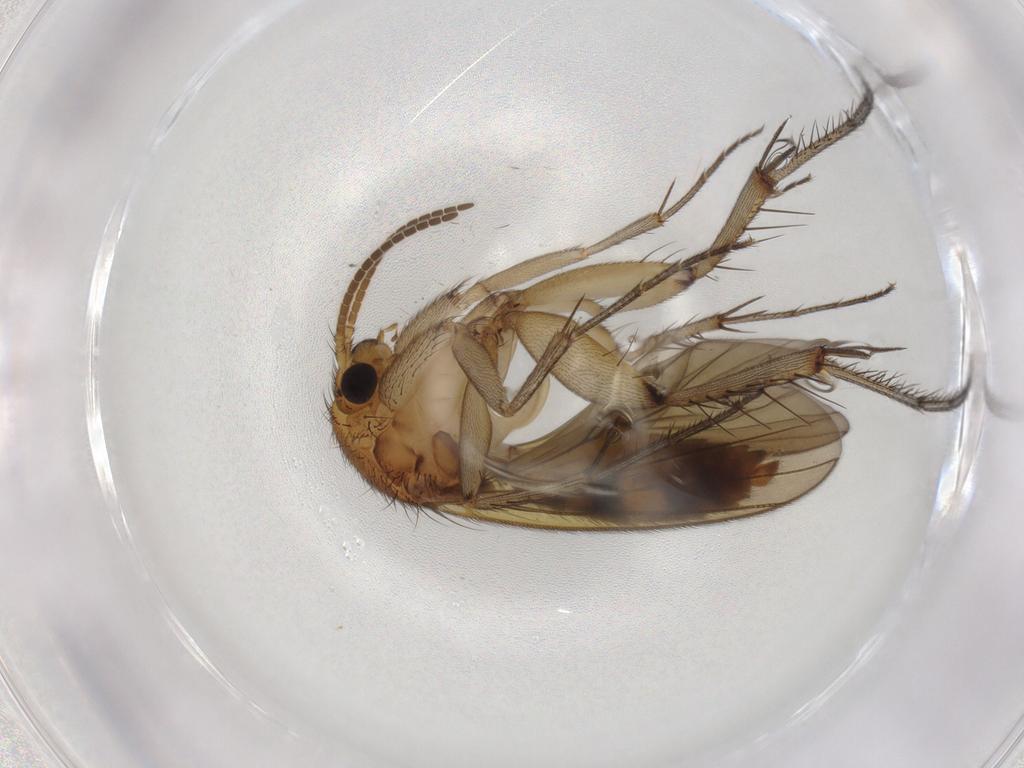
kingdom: Animalia
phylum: Arthropoda
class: Insecta
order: Diptera
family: Mycetophilidae
